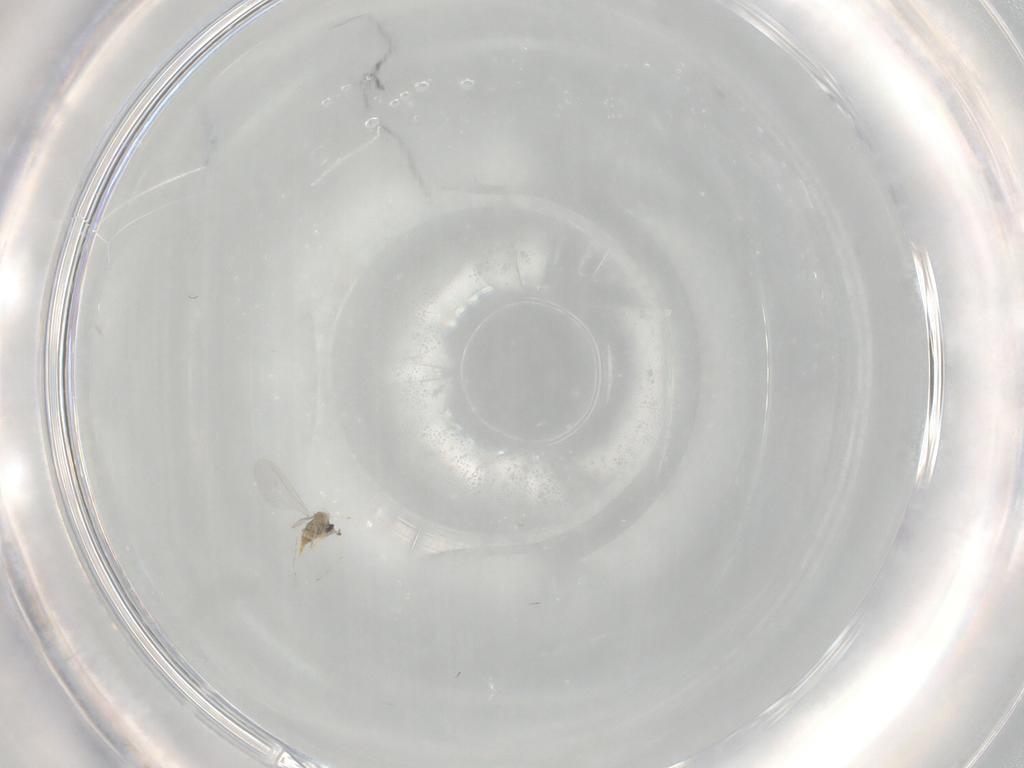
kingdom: Animalia
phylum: Arthropoda
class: Insecta
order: Diptera
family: Cecidomyiidae
